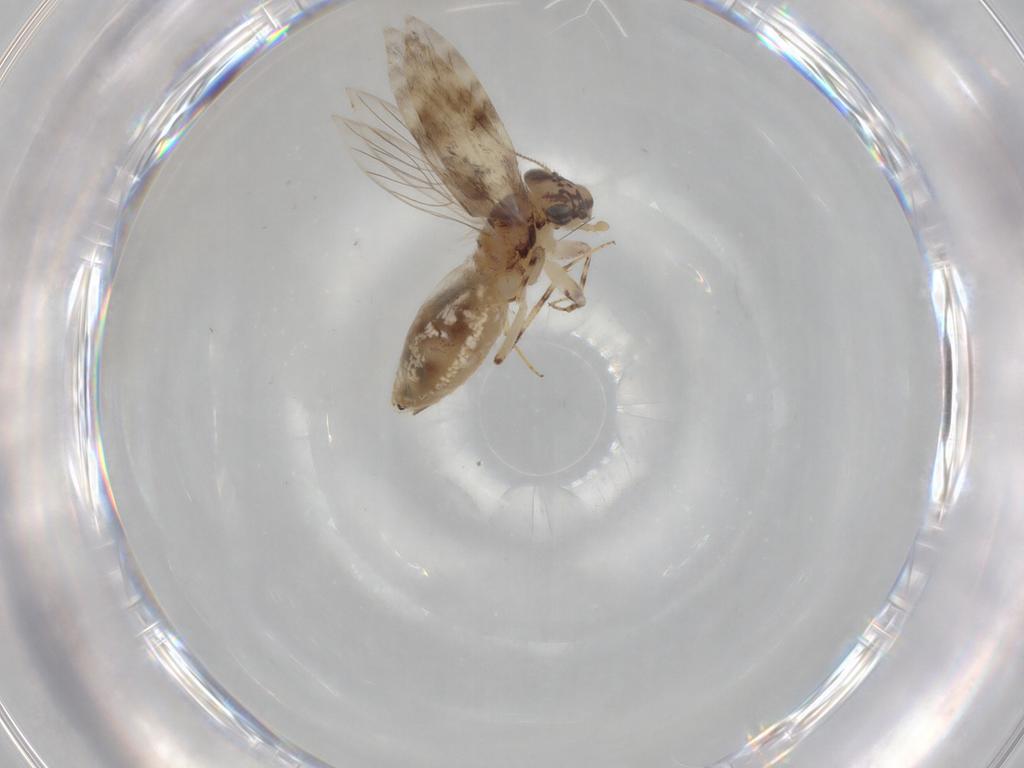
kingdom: Animalia
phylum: Arthropoda
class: Insecta
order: Psocodea
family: Lepidopsocidae
